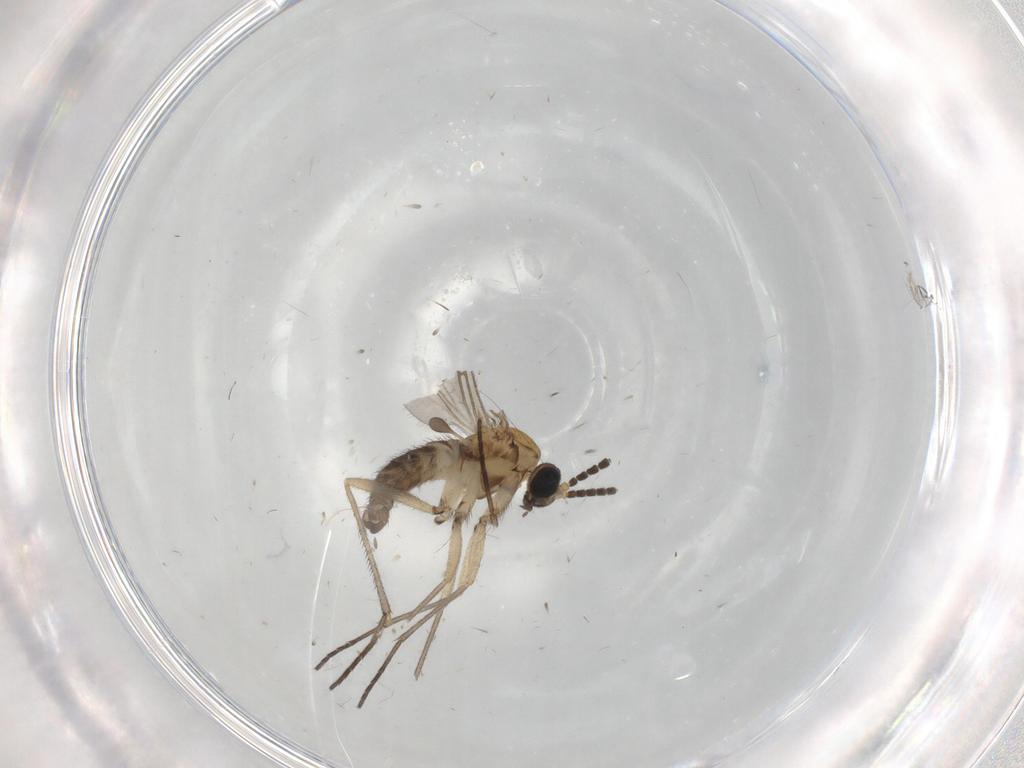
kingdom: Animalia
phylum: Arthropoda
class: Insecta
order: Diptera
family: Sciaridae
